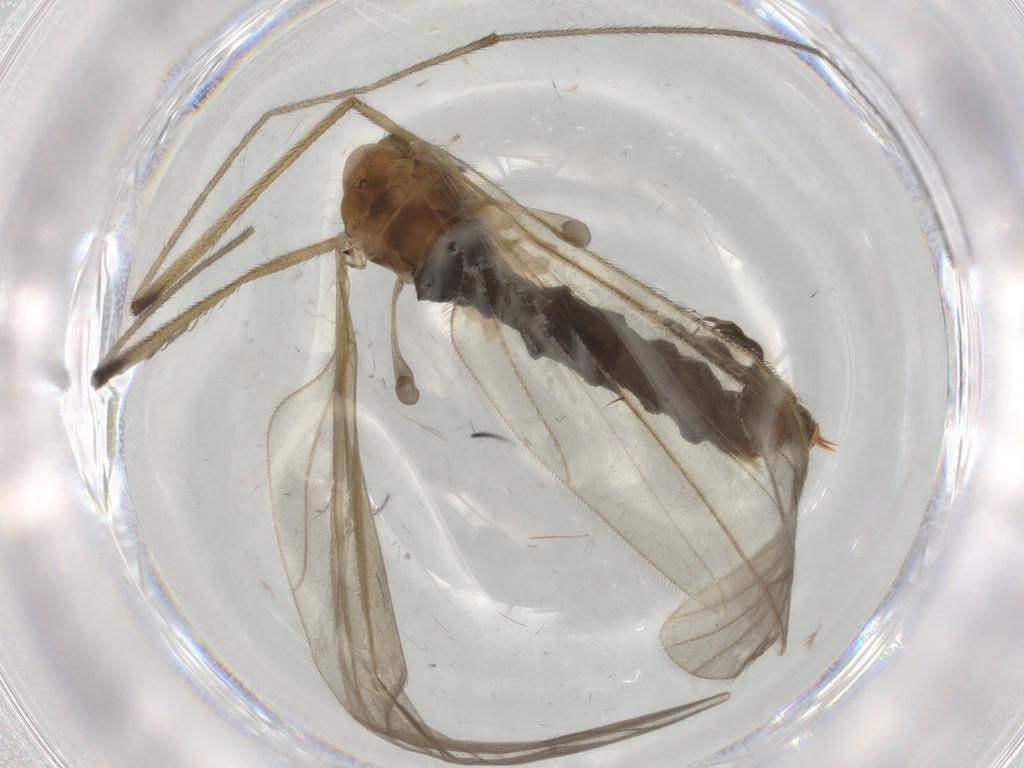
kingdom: Animalia
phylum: Arthropoda
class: Insecta
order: Diptera
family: Limoniidae
